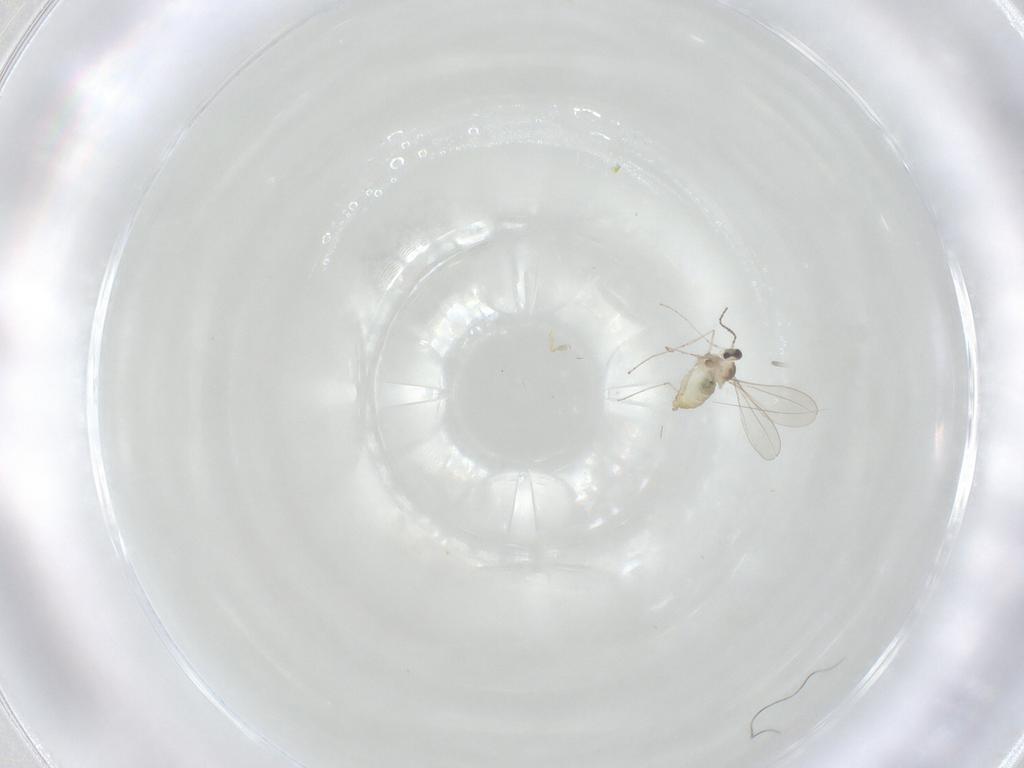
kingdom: Animalia
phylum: Arthropoda
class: Insecta
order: Diptera
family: Cecidomyiidae
